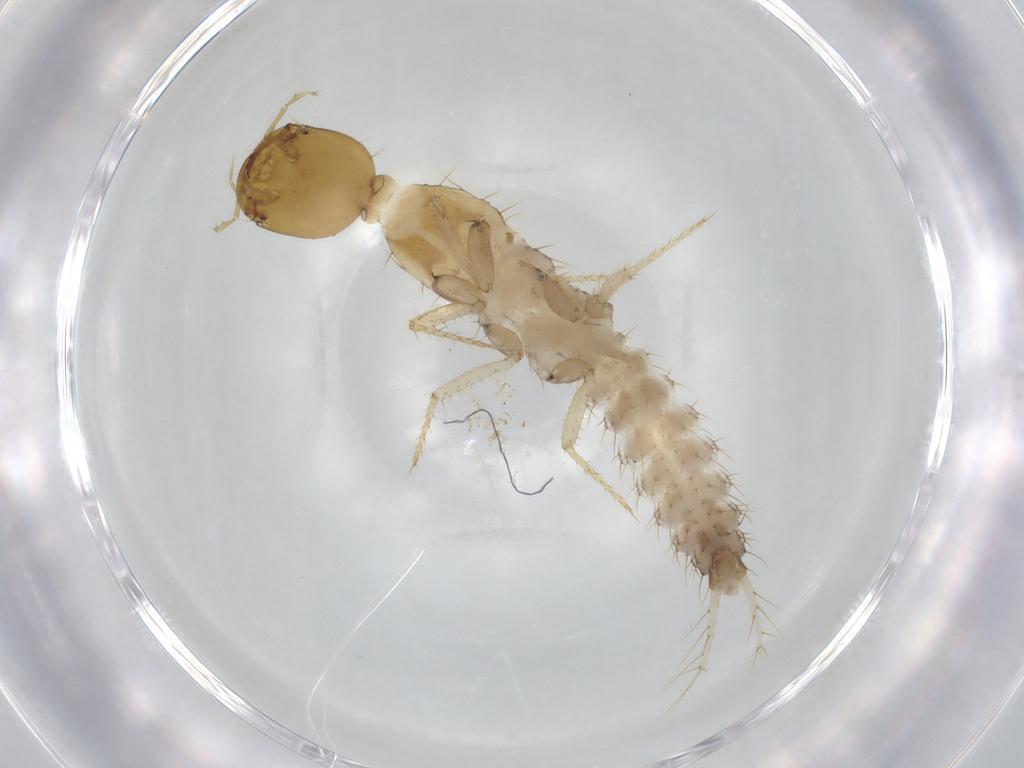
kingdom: Animalia
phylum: Arthropoda
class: Insecta
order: Coleoptera
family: Staphylinidae
